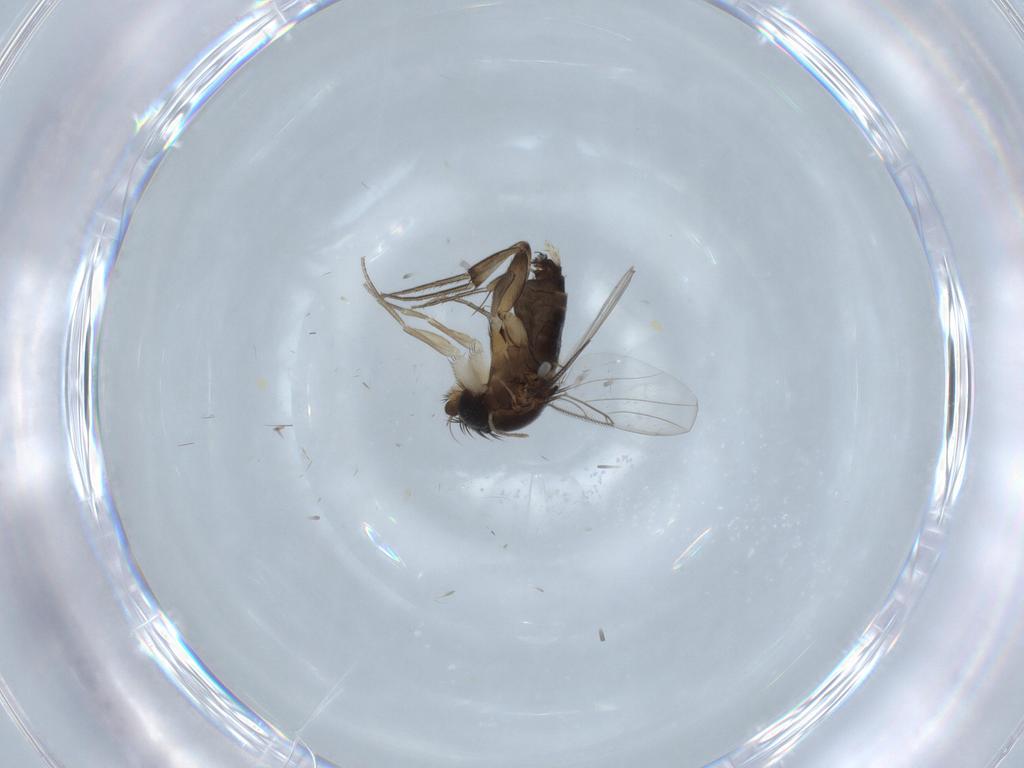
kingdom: Animalia
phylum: Arthropoda
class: Insecta
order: Diptera
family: Phoridae
